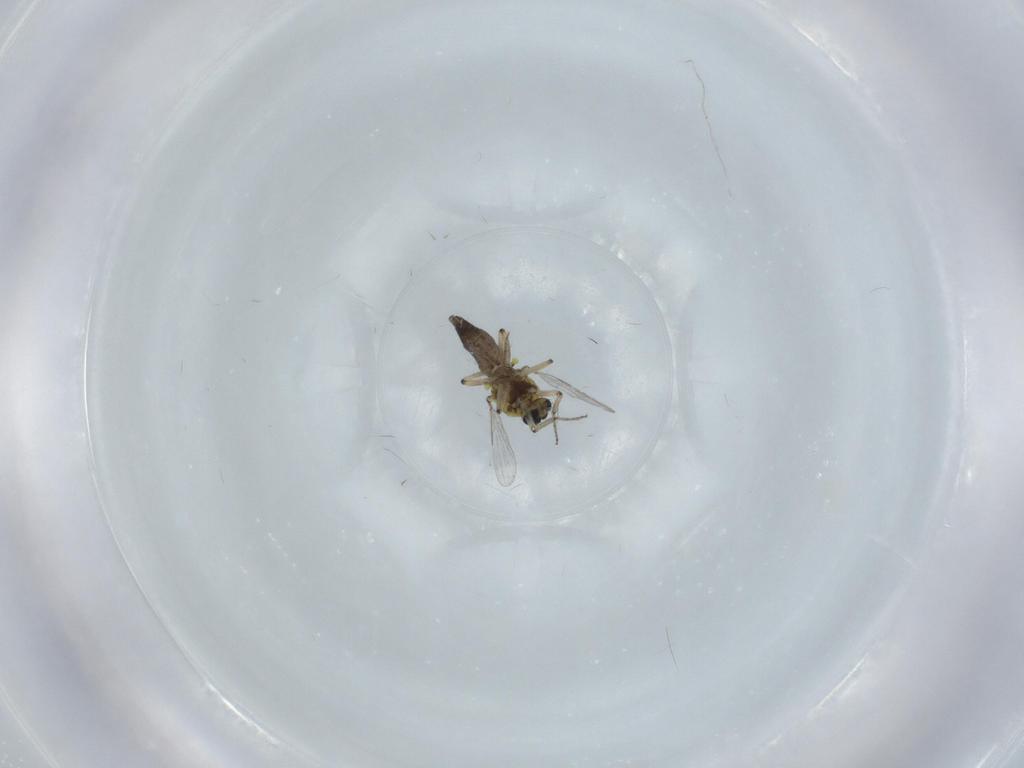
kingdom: Animalia
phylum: Arthropoda
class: Insecta
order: Diptera
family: Ceratopogonidae
